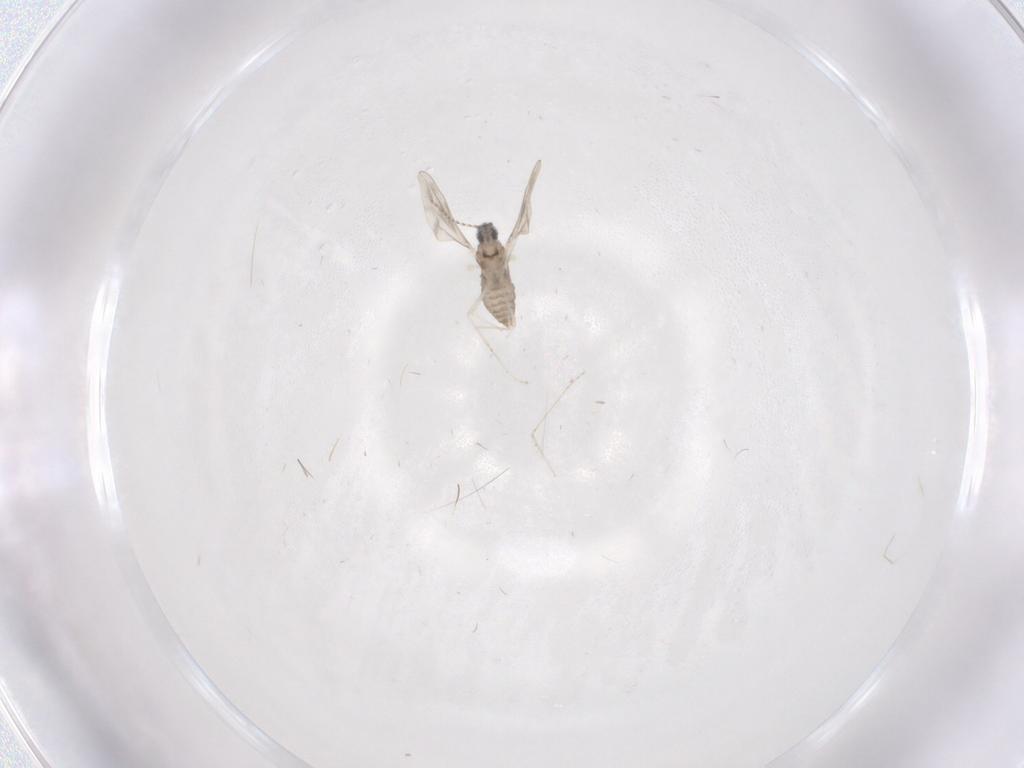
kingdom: Animalia
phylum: Arthropoda
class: Insecta
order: Diptera
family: Cecidomyiidae
